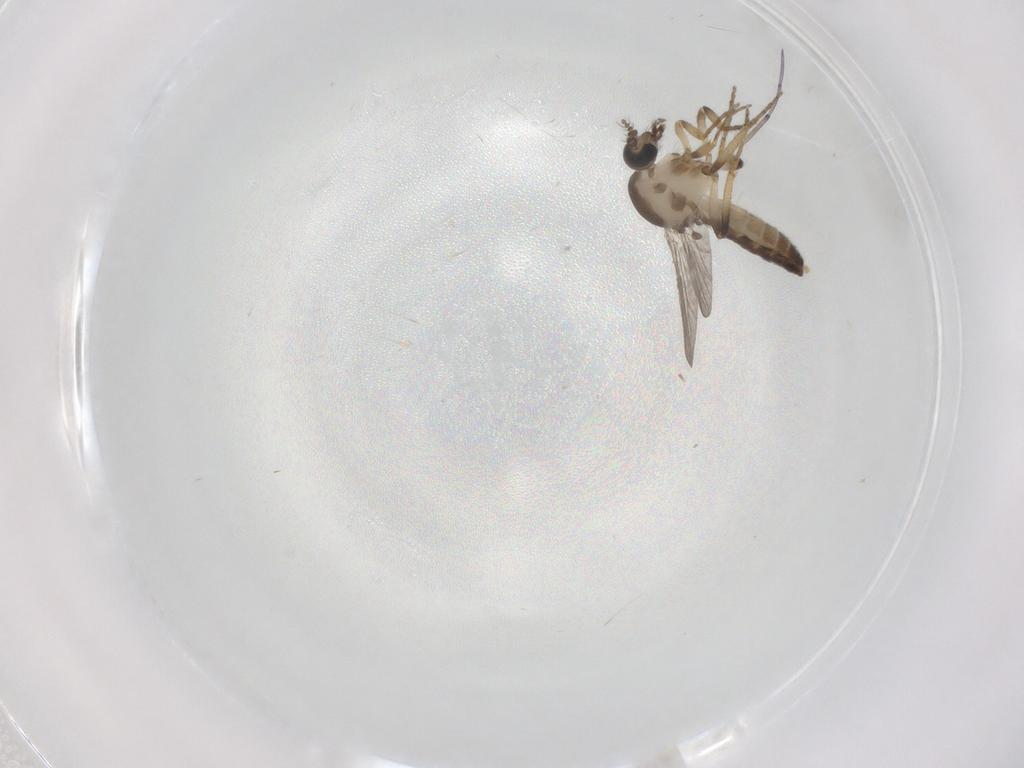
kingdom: Animalia
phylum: Arthropoda
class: Insecta
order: Diptera
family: Ceratopogonidae
